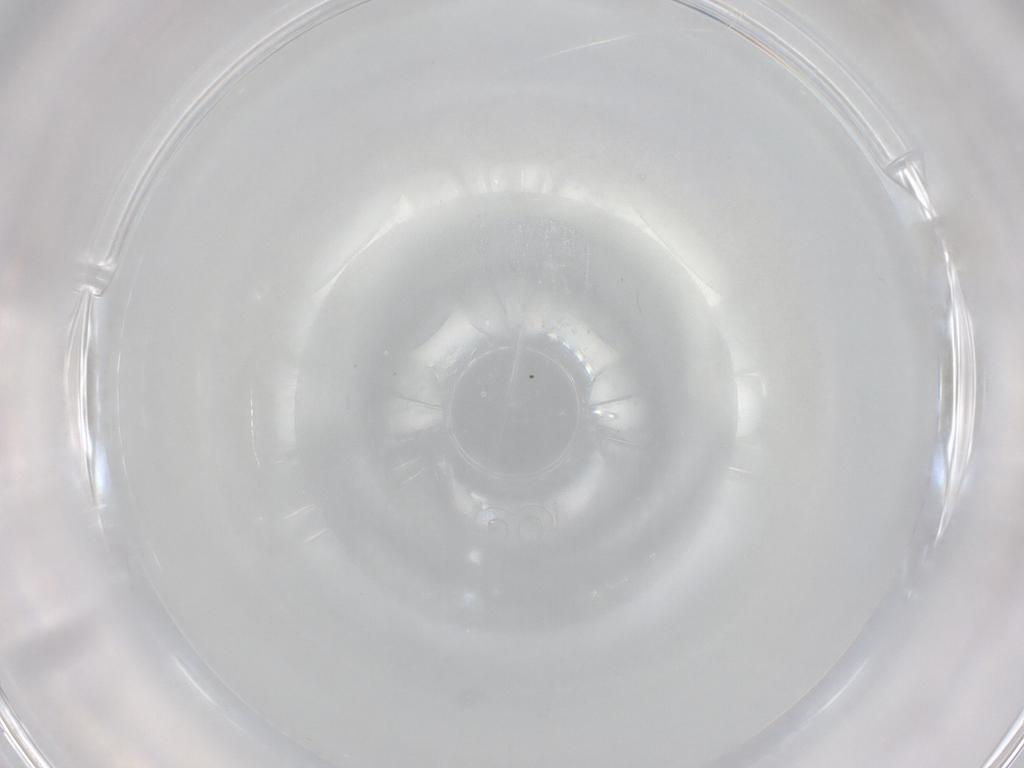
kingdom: Animalia
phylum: Arthropoda
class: Insecta
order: Diptera
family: Cecidomyiidae
